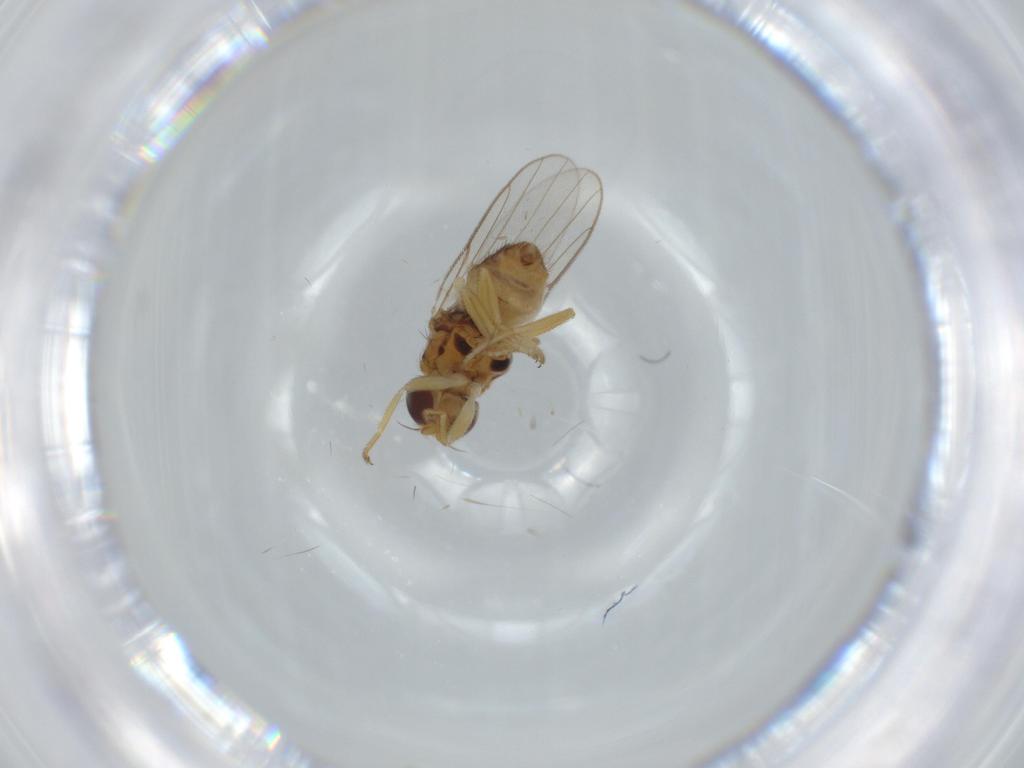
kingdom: Animalia
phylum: Arthropoda
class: Insecta
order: Diptera
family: Chloropidae
